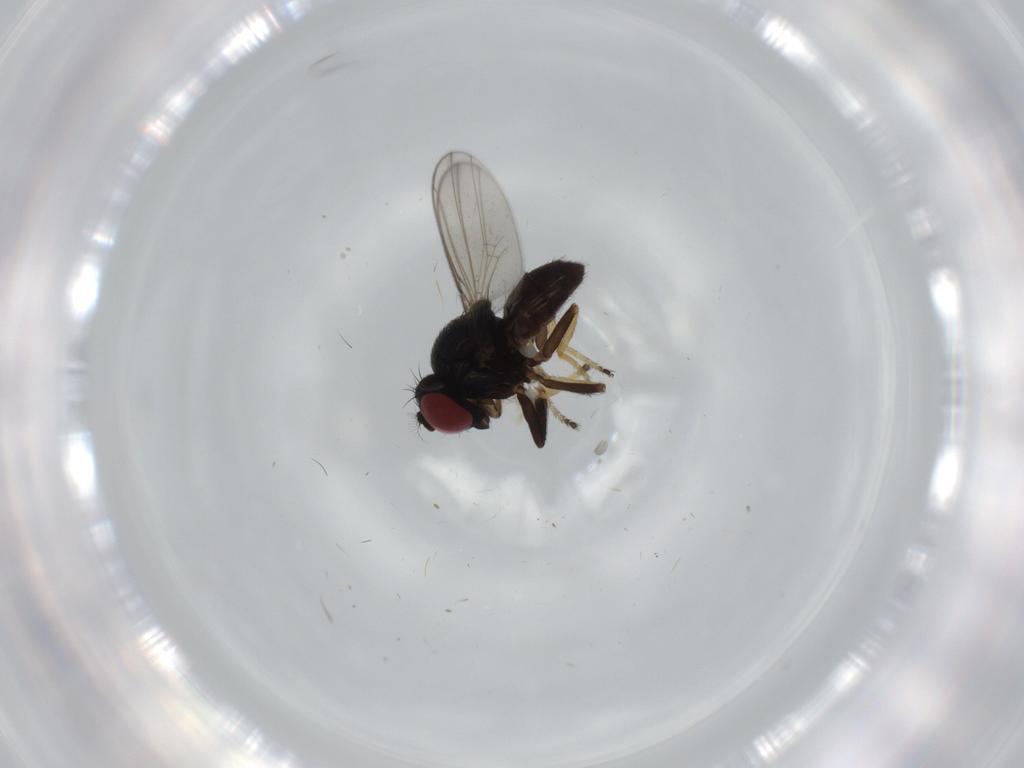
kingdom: Animalia
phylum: Arthropoda
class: Insecta
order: Diptera
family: Ephydridae
